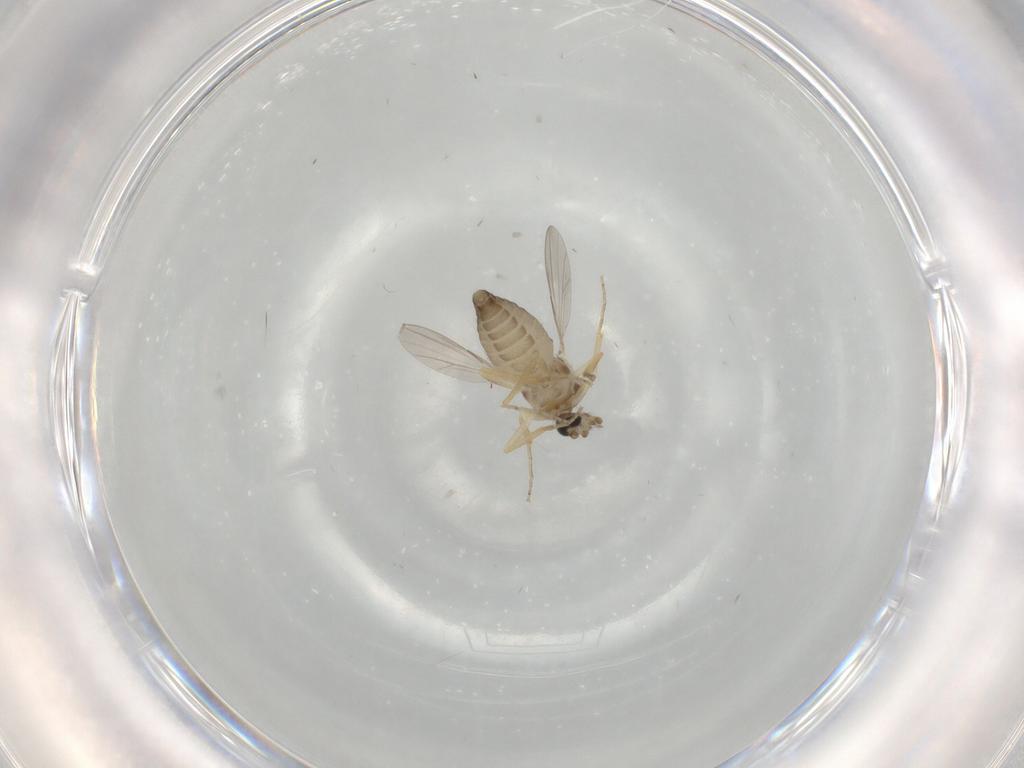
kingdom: Animalia
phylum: Arthropoda
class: Insecta
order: Diptera
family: Ceratopogonidae
